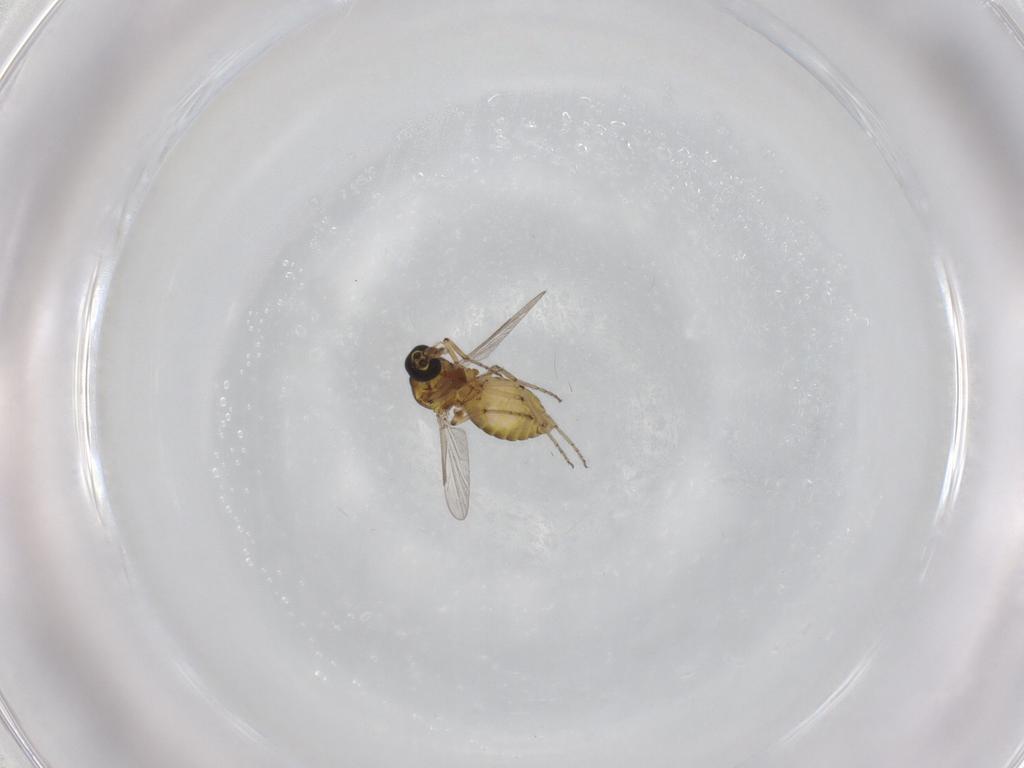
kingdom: Animalia
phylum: Arthropoda
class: Insecta
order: Diptera
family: Ceratopogonidae
